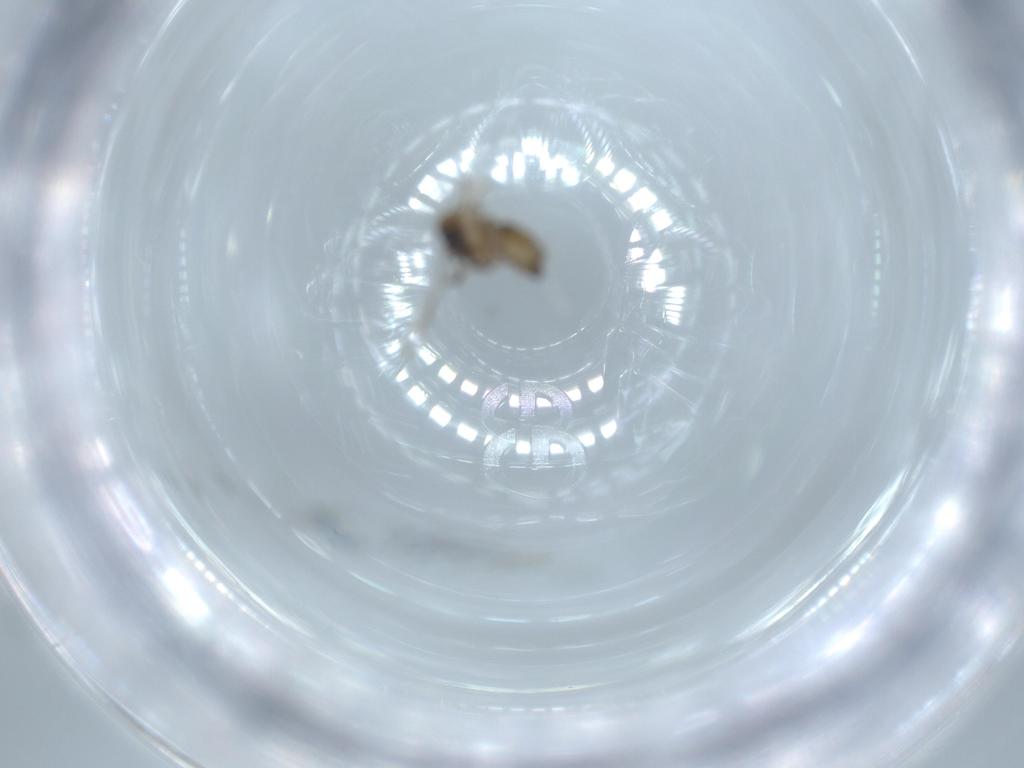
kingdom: Animalia
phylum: Arthropoda
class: Insecta
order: Diptera
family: Psychodidae
